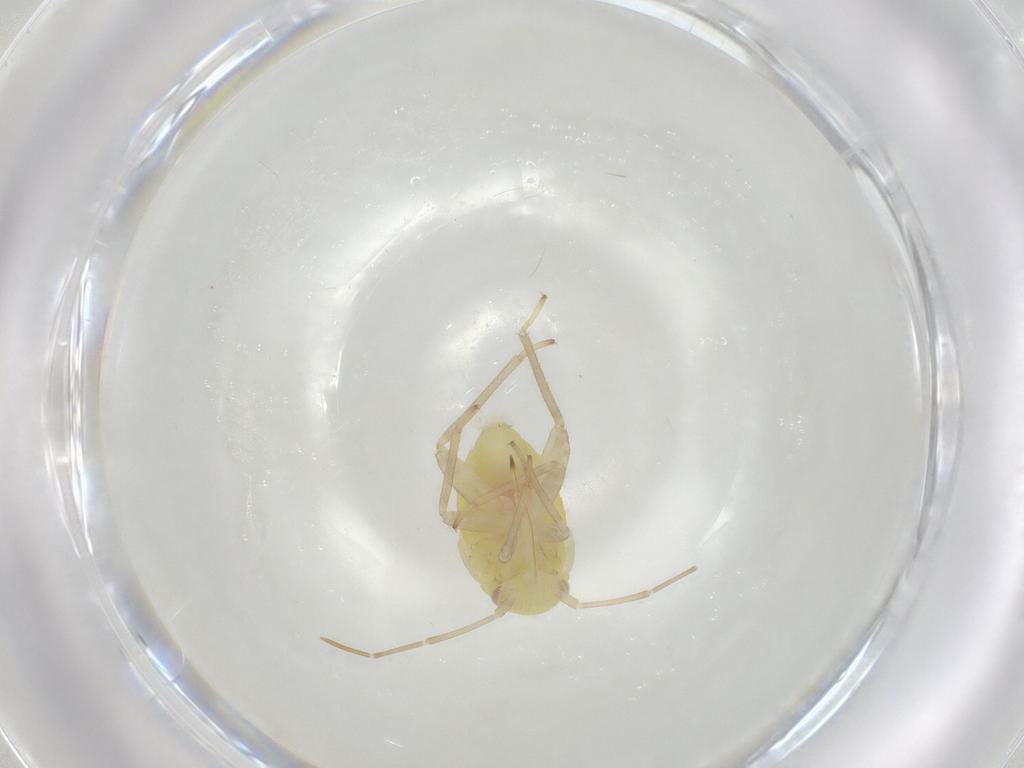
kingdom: Animalia
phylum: Arthropoda
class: Insecta
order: Hemiptera
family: Miridae
